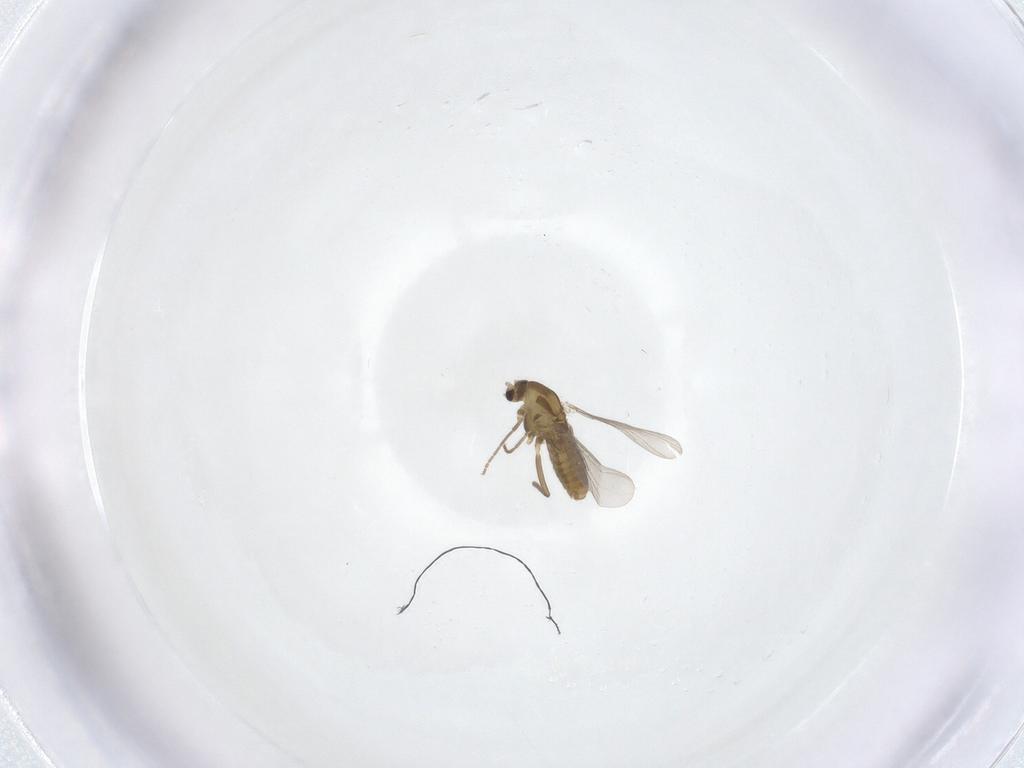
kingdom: Animalia
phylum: Arthropoda
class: Insecta
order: Diptera
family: Chironomidae
